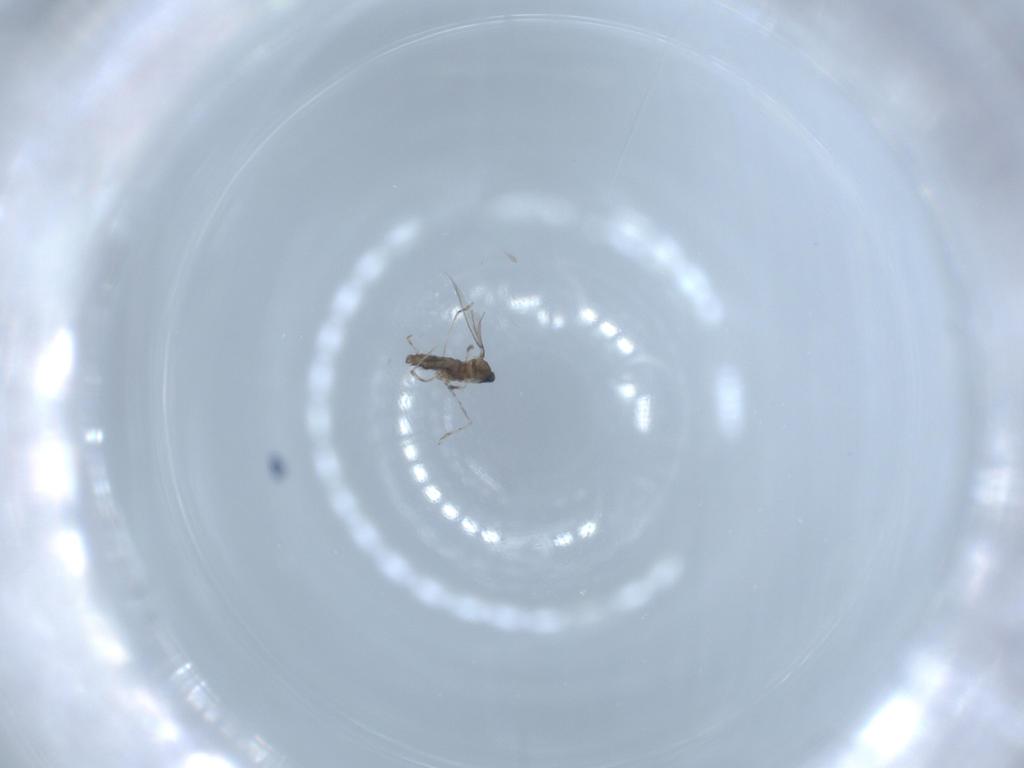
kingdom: Animalia
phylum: Arthropoda
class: Insecta
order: Diptera
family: Cecidomyiidae
